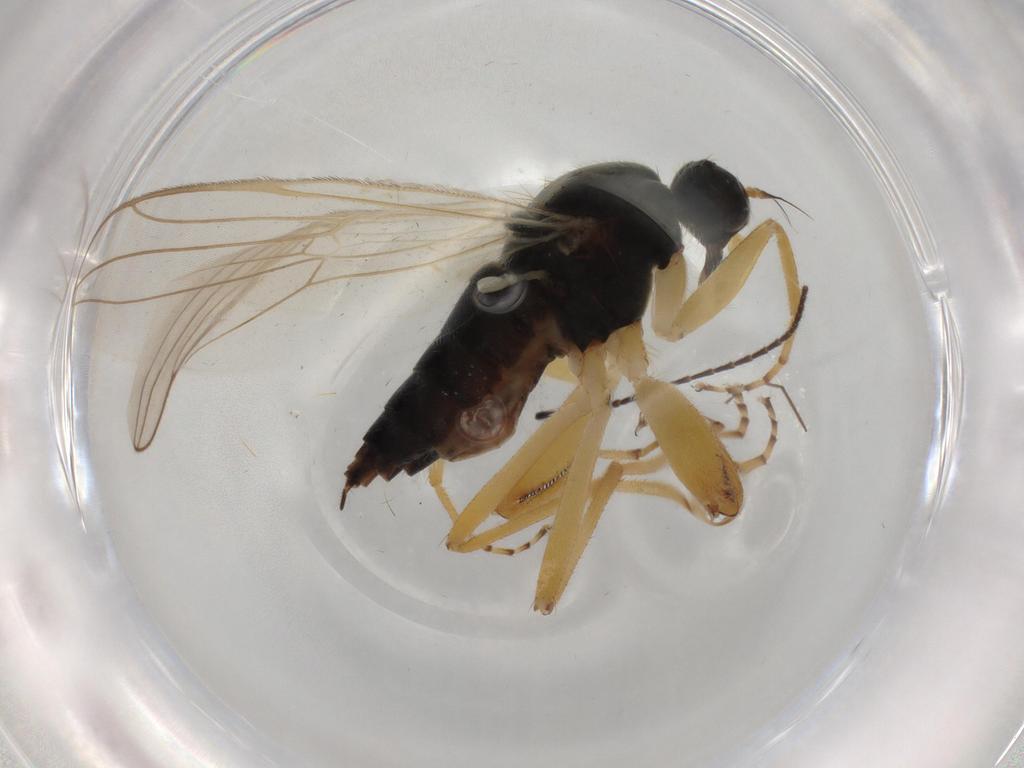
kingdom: Animalia
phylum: Arthropoda
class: Insecta
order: Diptera
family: Hybotidae
